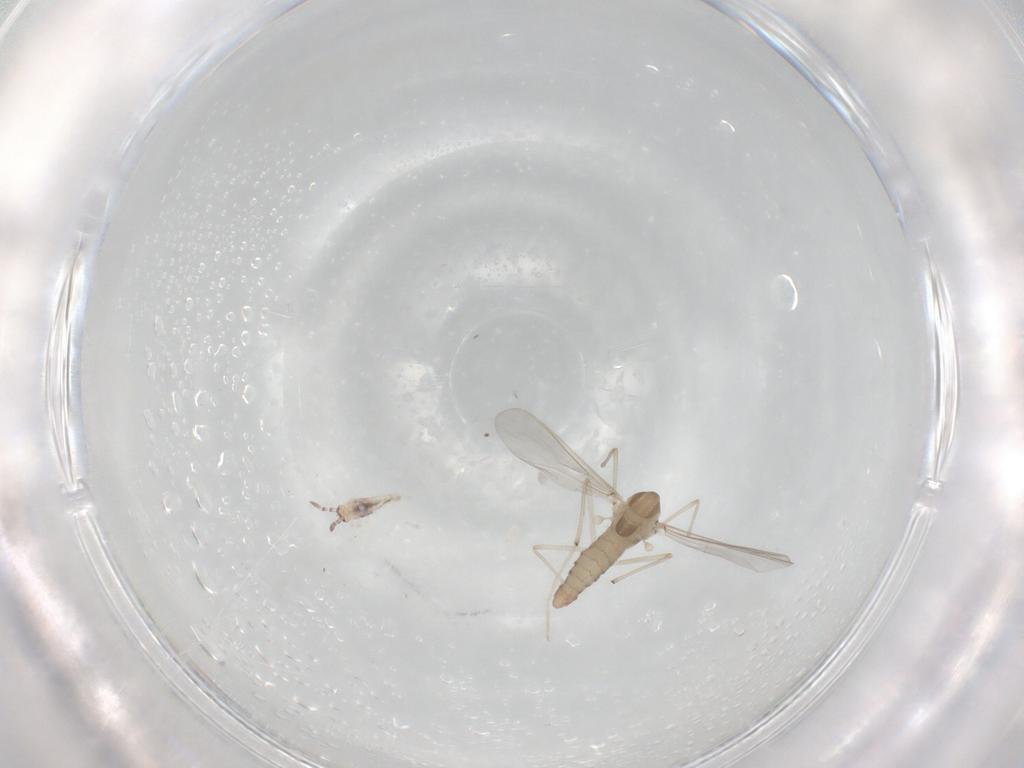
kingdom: Animalia
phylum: Arthropoda
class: Insecta
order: Diptera
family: Chironomidae
